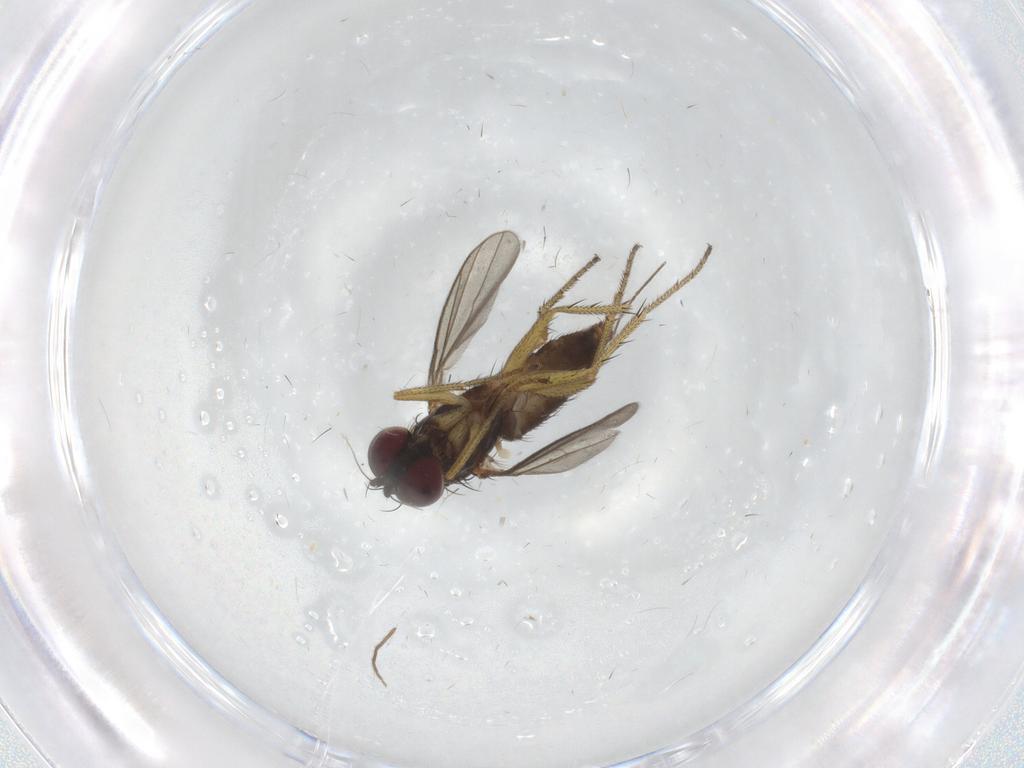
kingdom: Animalia
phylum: Arthropoda
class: Insecta
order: Diptera
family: Dolichopodidae
